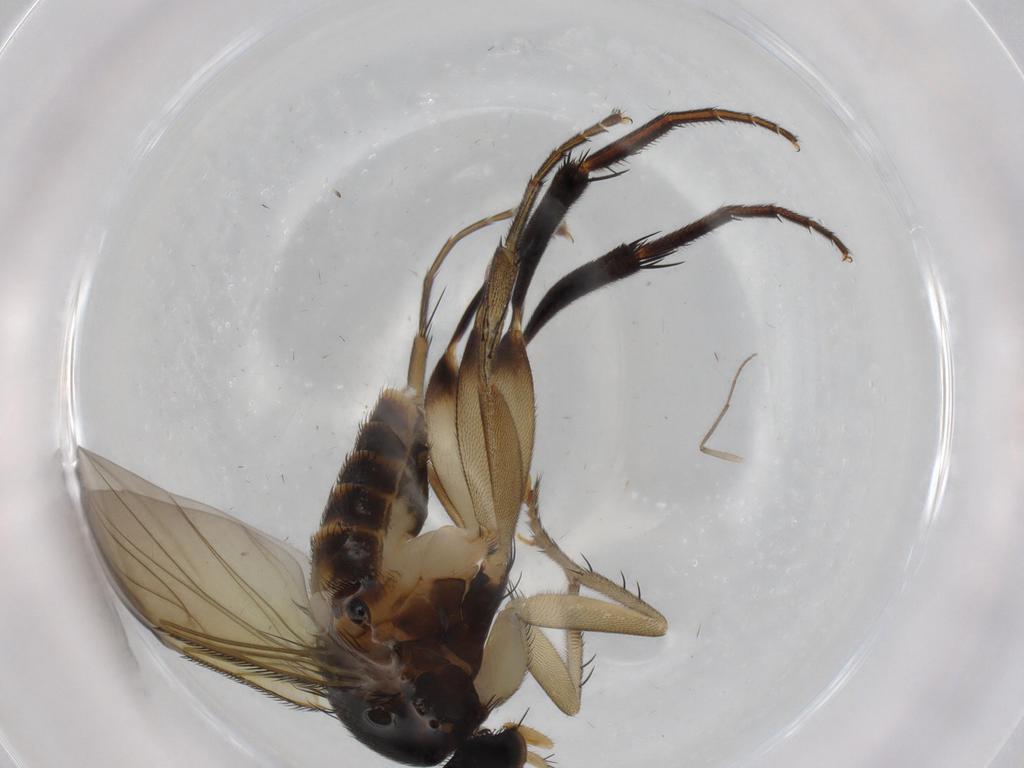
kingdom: Animalia
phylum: Arthropoda
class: Insecta
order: Diptera
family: Phoridae
